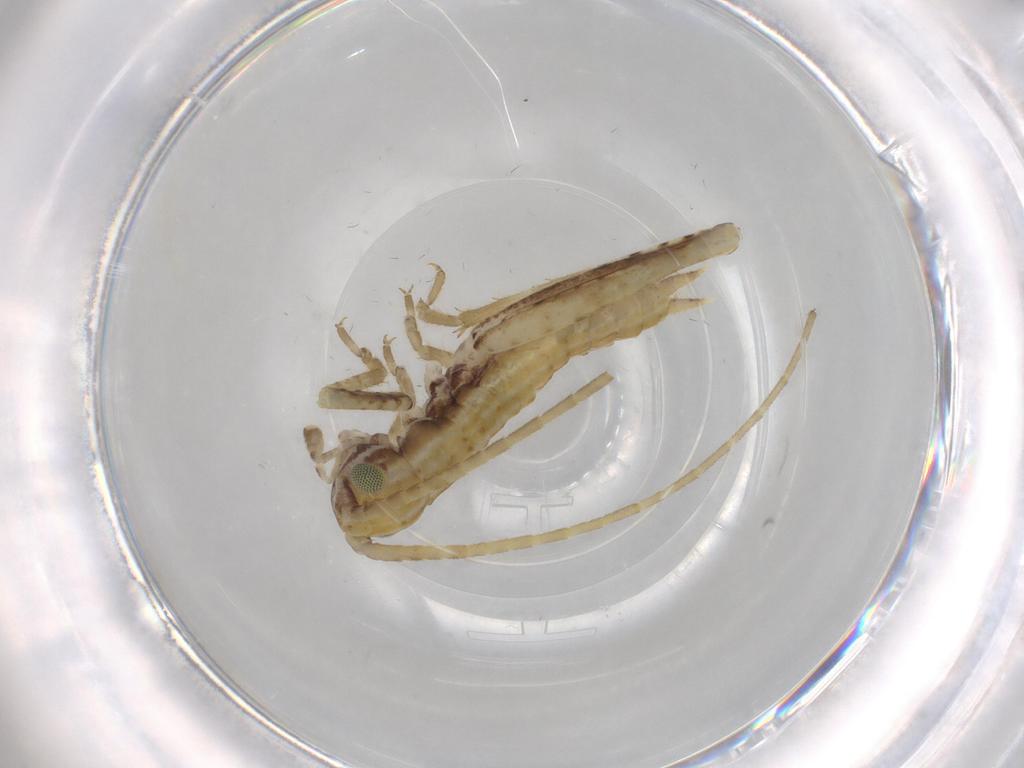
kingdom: Animalia
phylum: Arthropoda
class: Insecta
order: Orthoptera
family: Gryllidae
